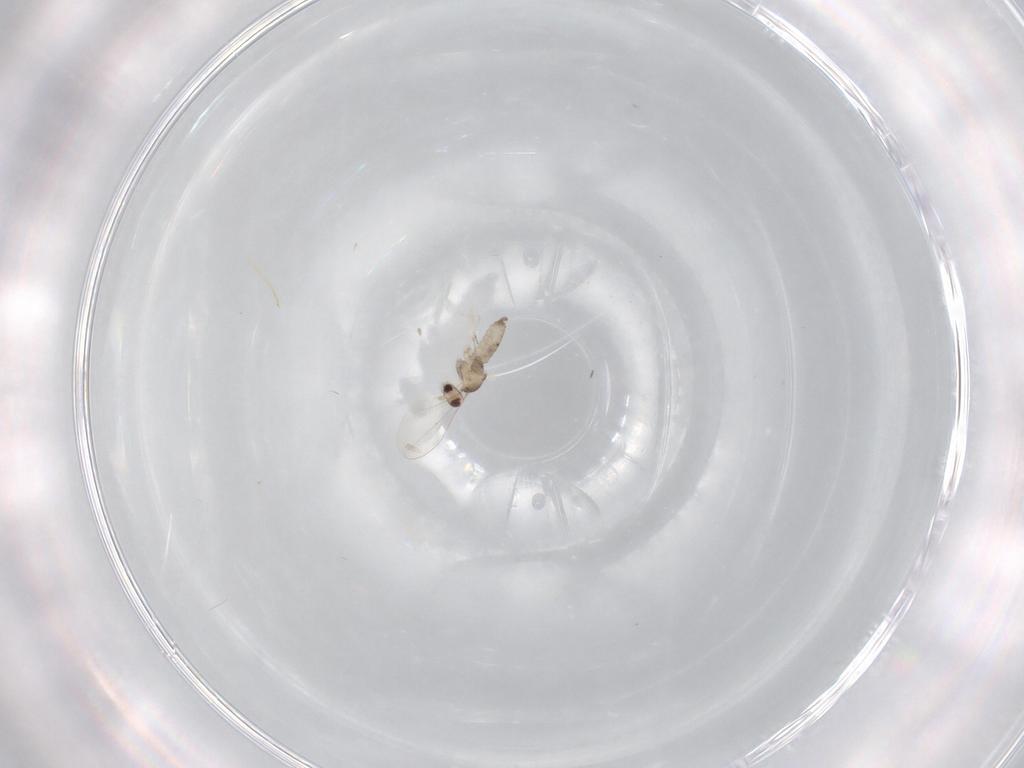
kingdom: Animalia
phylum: Arthropoda
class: Insecta
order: Diptera
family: Cecidomyiidae
